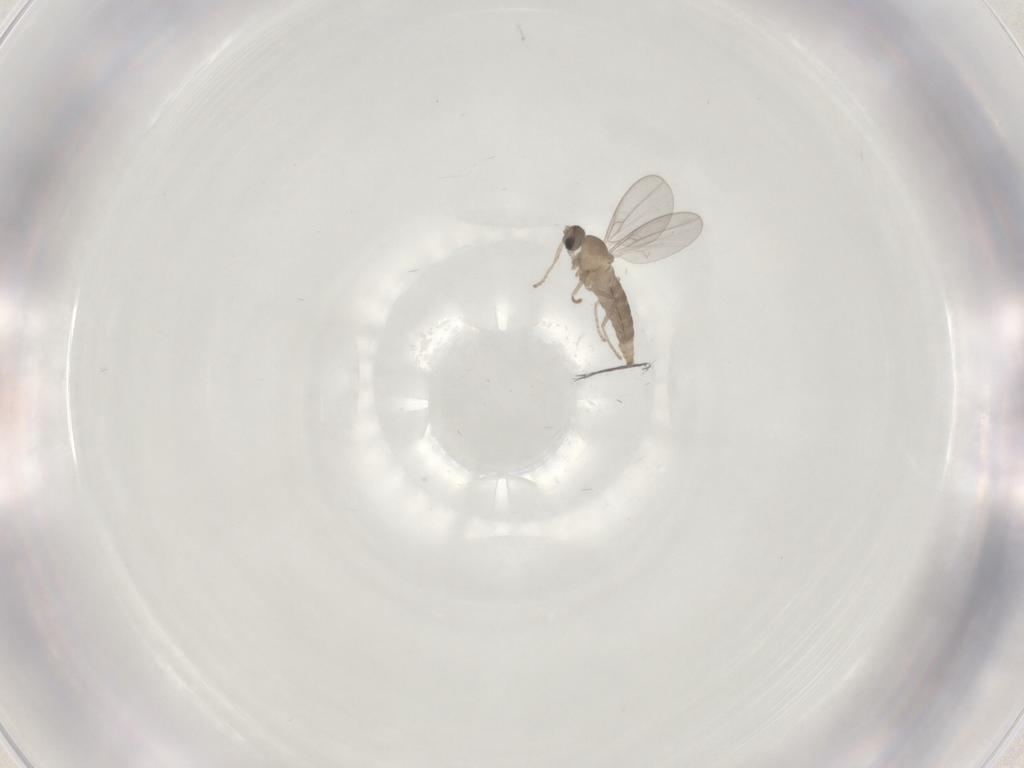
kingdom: Animalia
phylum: Arthropoda
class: Insecta
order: Diptera
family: Cecidomyiidae
